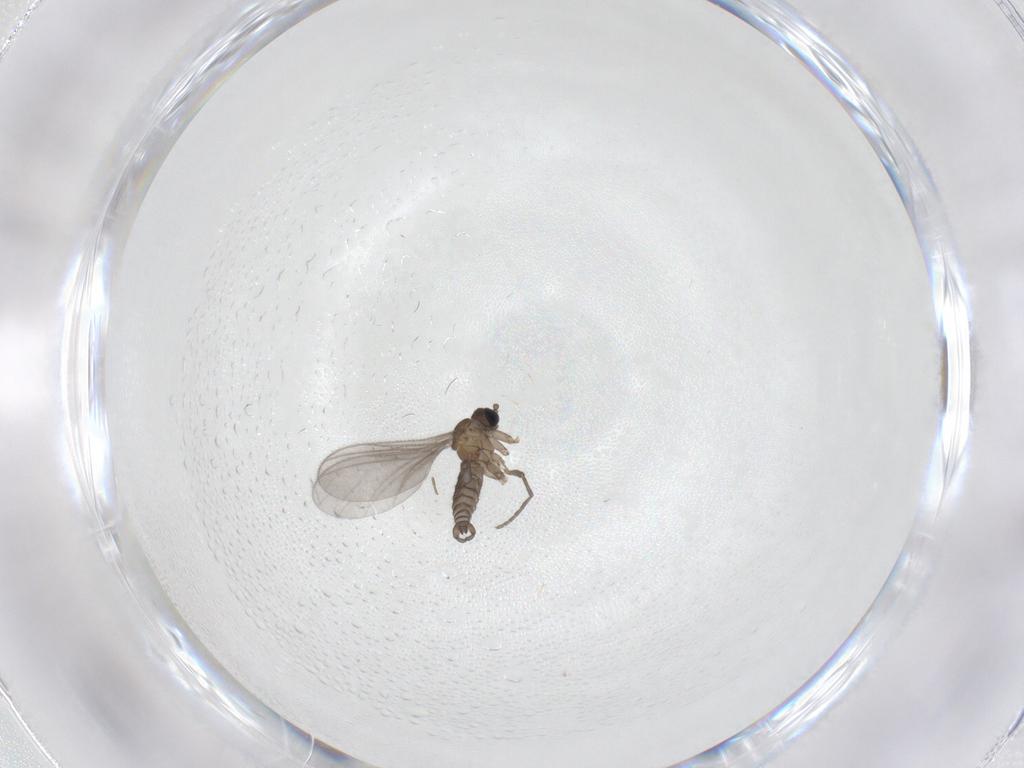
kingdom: Animalia
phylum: Arthropoda
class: Insecta
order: Diptera
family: Sciaridae
